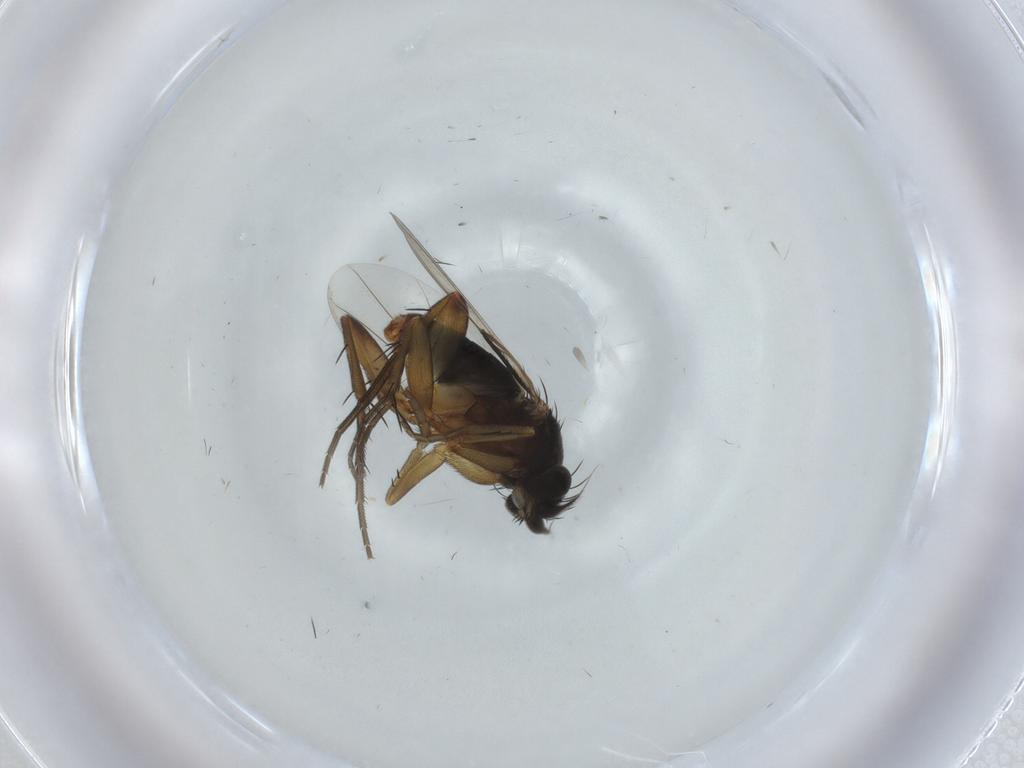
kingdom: Animalia
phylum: Arthropoda
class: Insecta
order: Diptera
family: Phoridae
